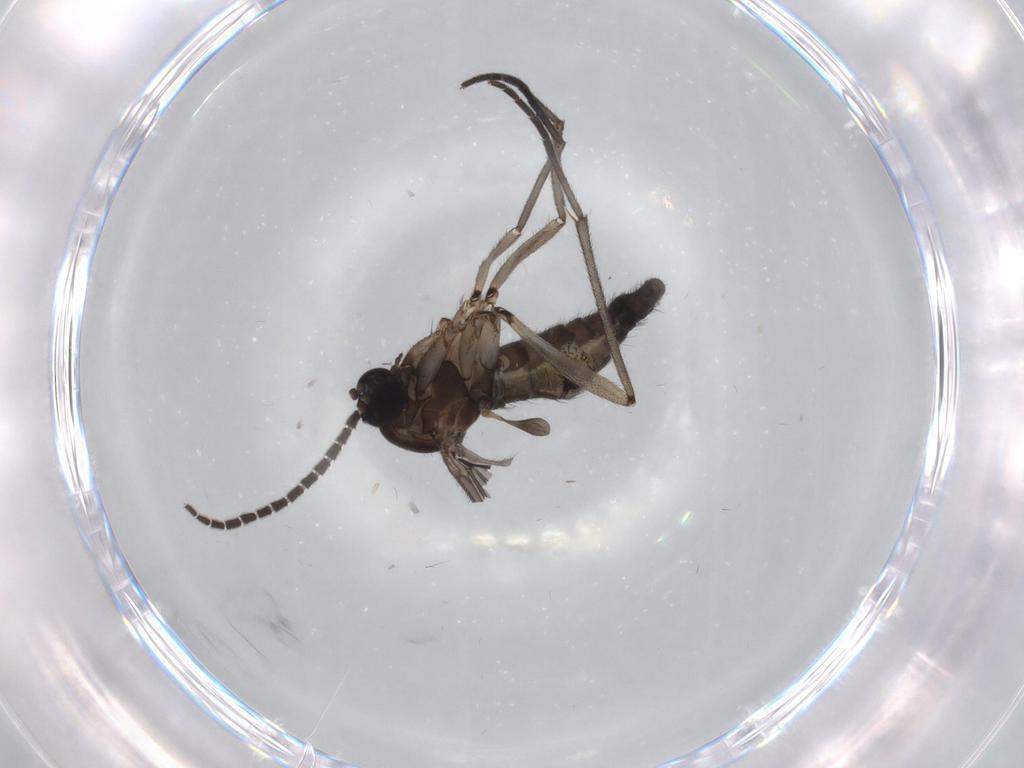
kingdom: Animalia
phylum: Arthropoda
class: Insecta
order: Diptera
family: Sciaridae
